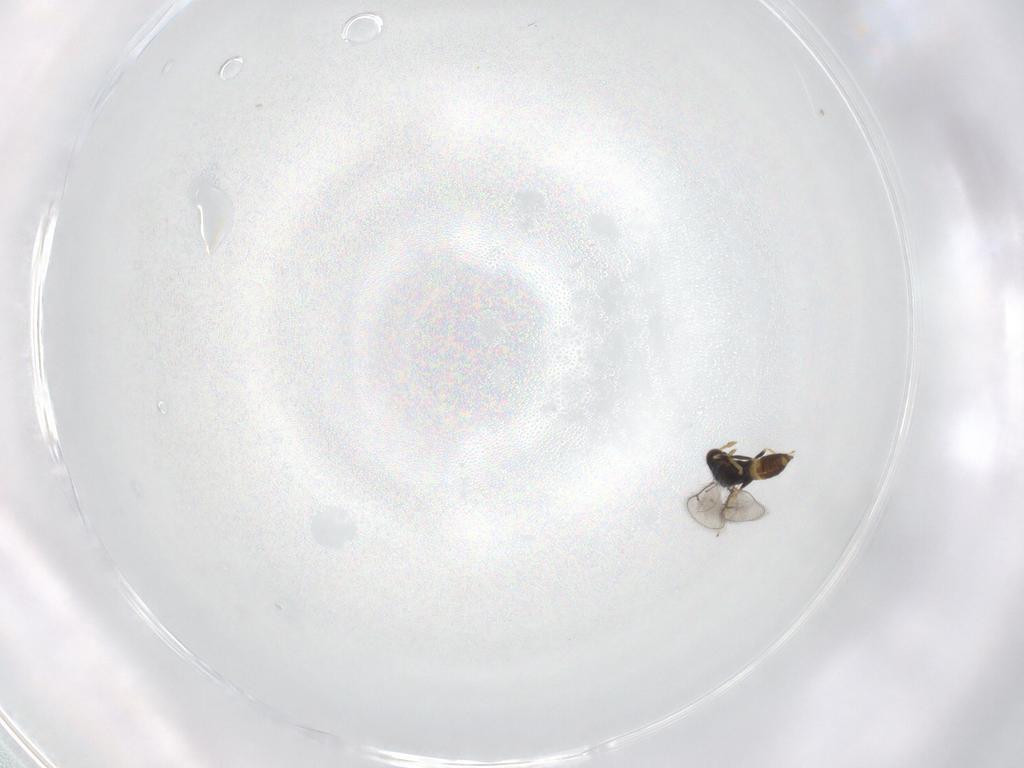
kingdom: Animalia
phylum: Arthropoda
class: Insecta
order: Hymenoptera
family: Eulophidae
